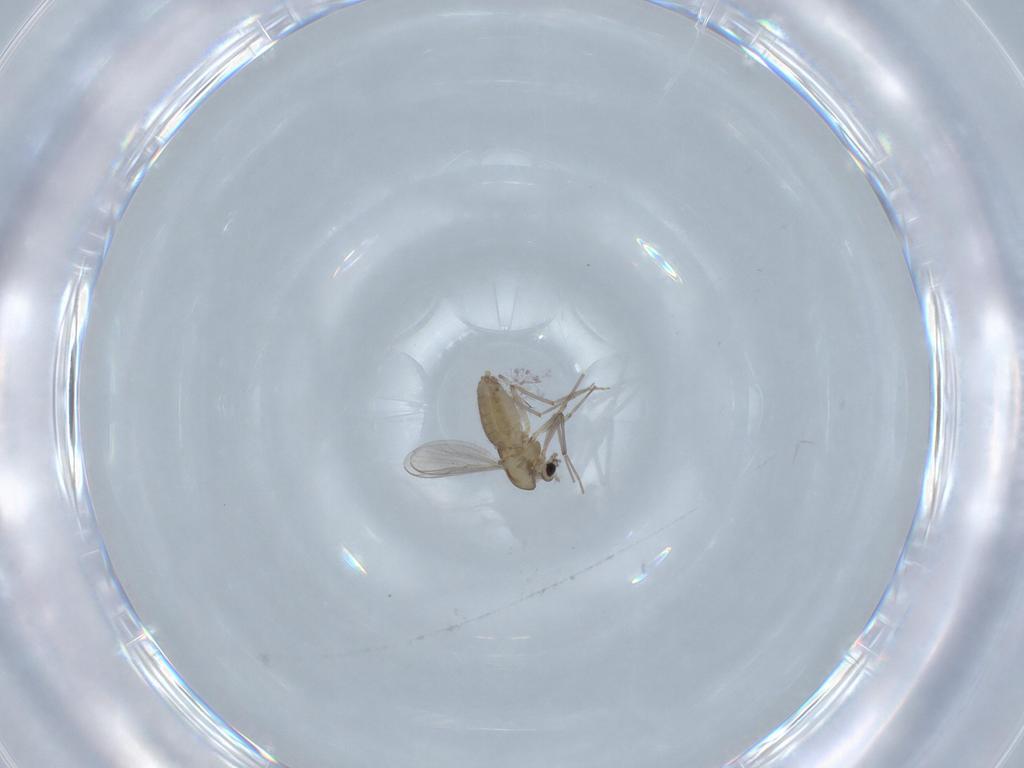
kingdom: Animalia
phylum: Arthropoda
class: Insecta
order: Diptera
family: Chironomidae
